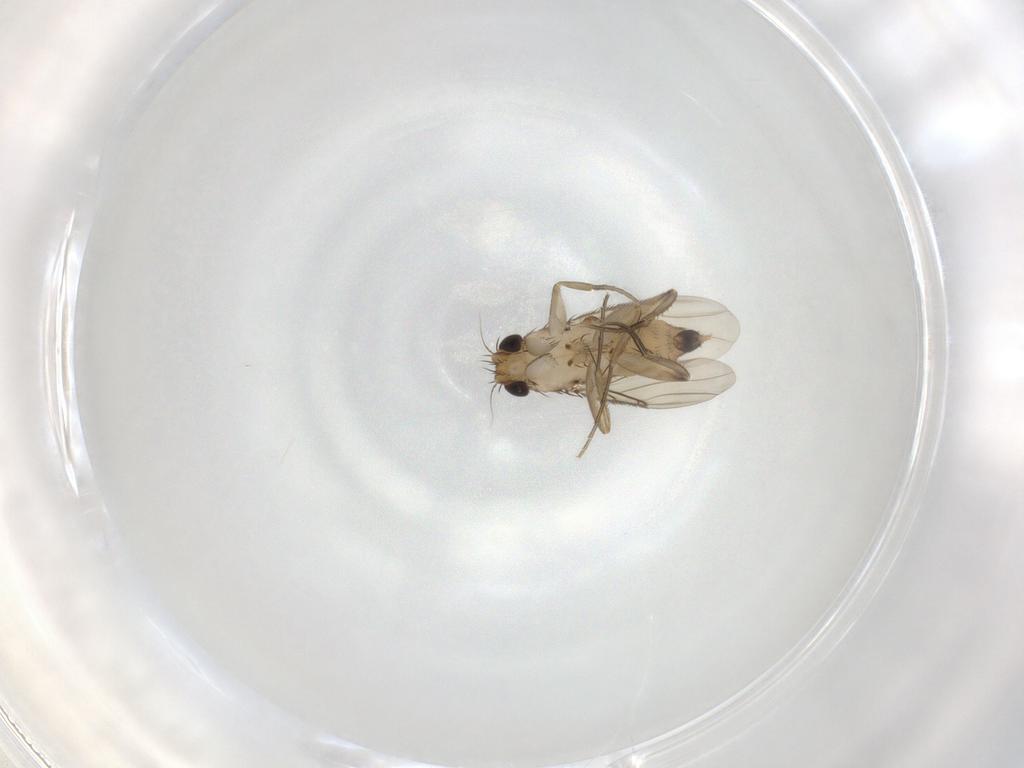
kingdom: Animalia
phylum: Arthropoda
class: Insecta
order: Diptera
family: Phoridae
